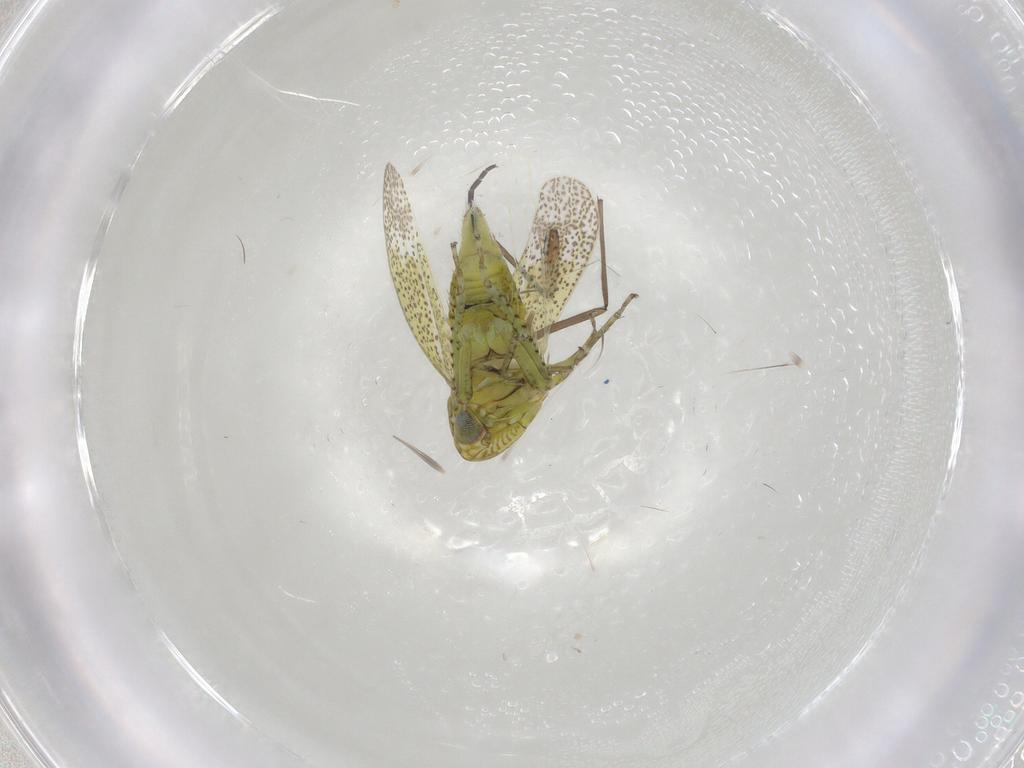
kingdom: Animalia
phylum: Arthropoda
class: Insecta
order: Hemiptera
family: Cicadellidae
